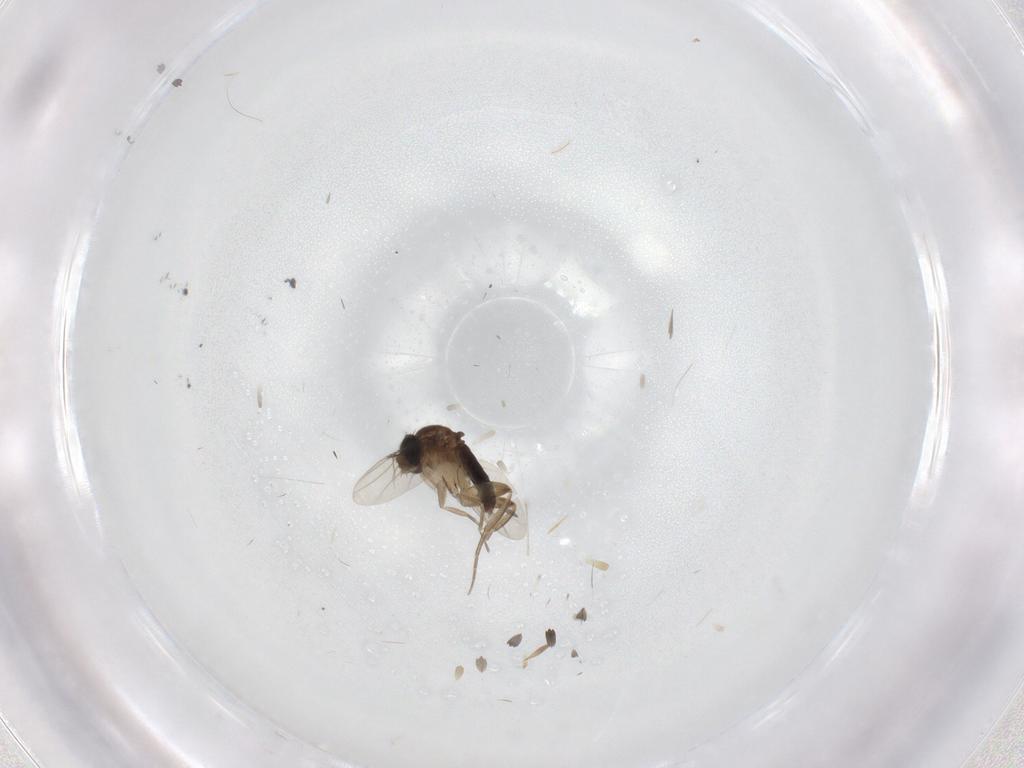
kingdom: Animalia
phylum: Arthropoda
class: Insecta
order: Diptera
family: Phoridae
